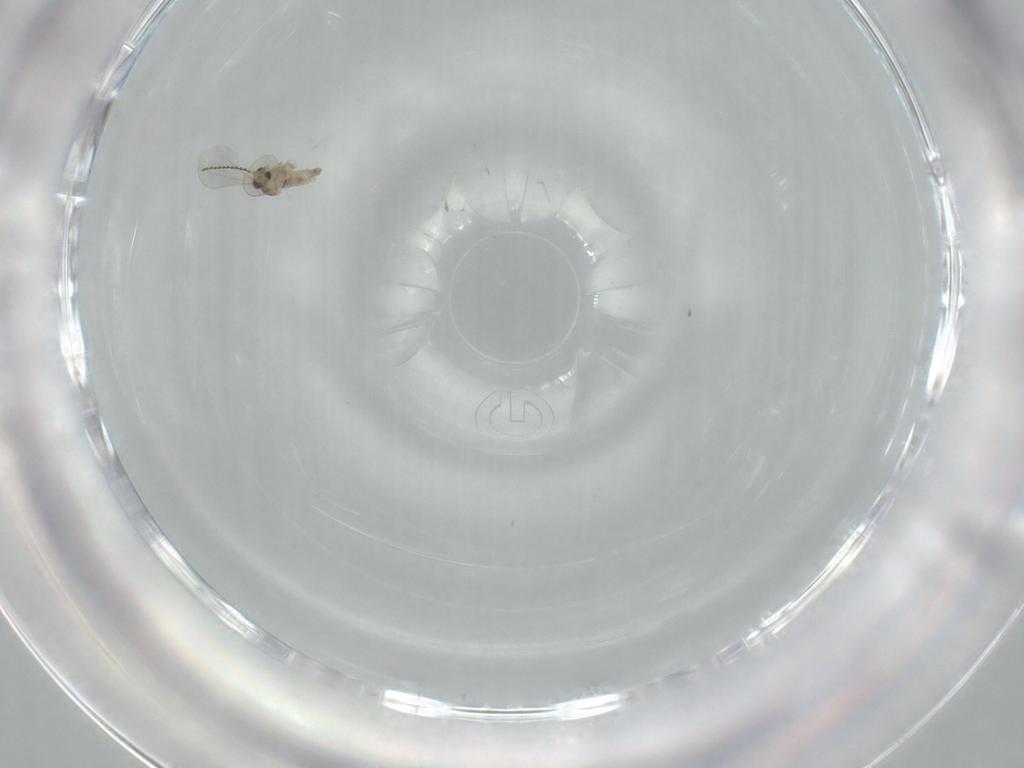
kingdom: Animalia
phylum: Arthropoda
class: Insecta
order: Diptera
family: Cecidomyiidae
